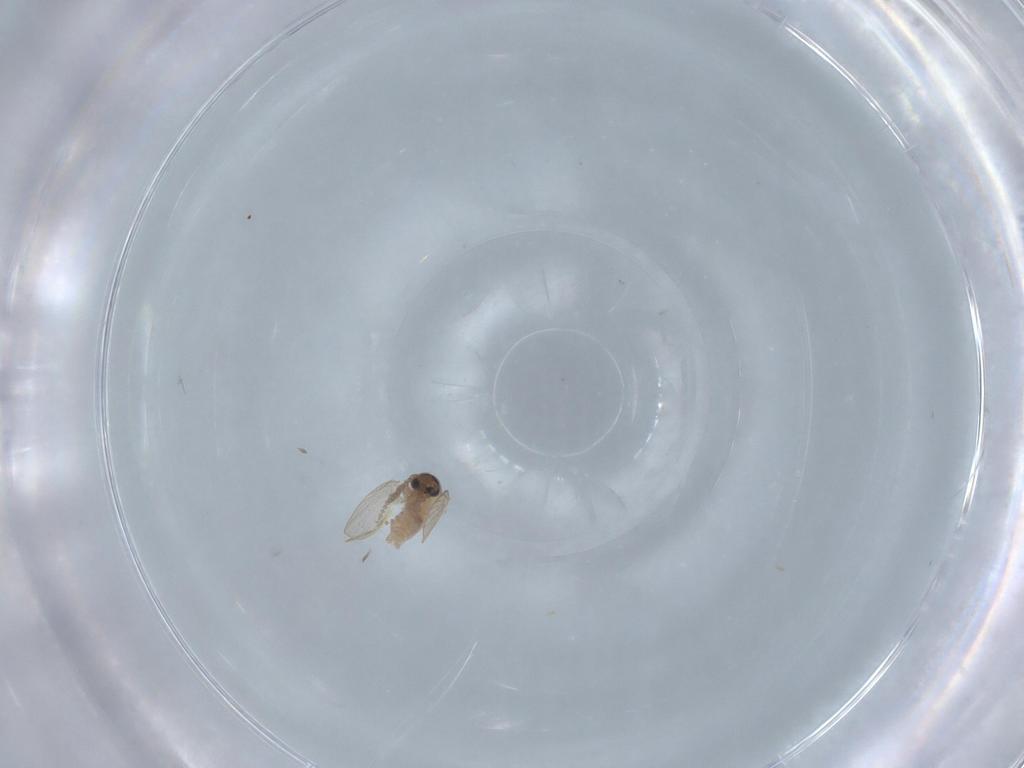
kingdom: Animalia
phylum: Arthropoda
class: Insecta
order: Diptera
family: Psychodidae
